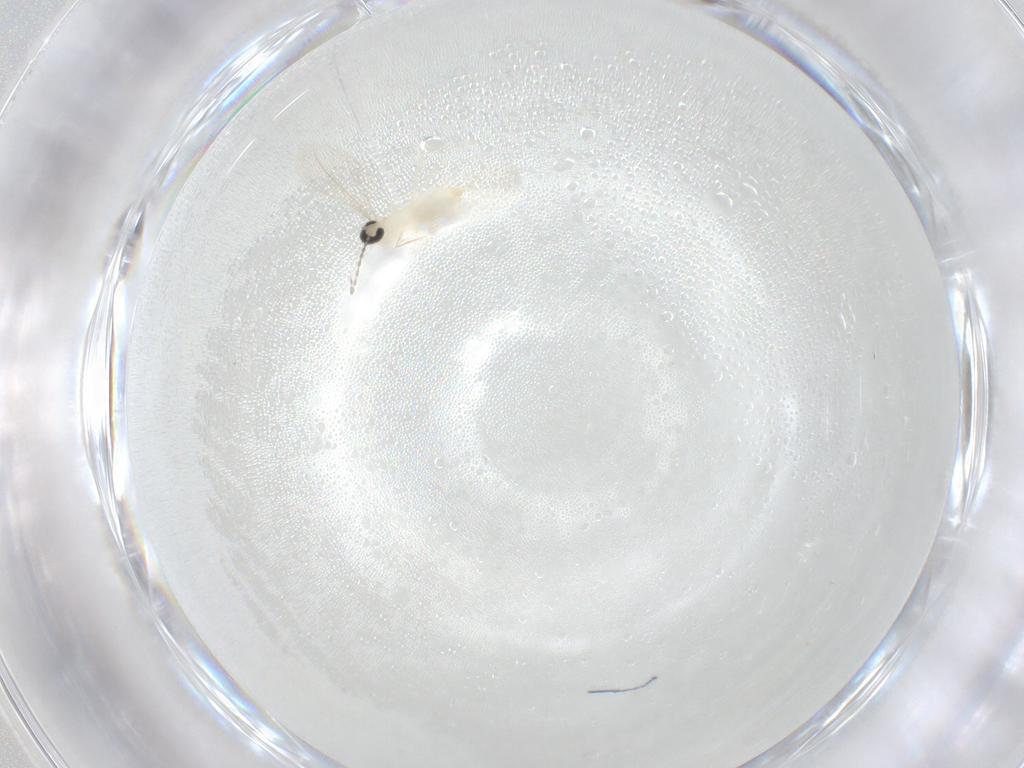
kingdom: Animalia
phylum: Arthropoda
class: Insecta
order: Diptera
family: Cecidomyiidae
